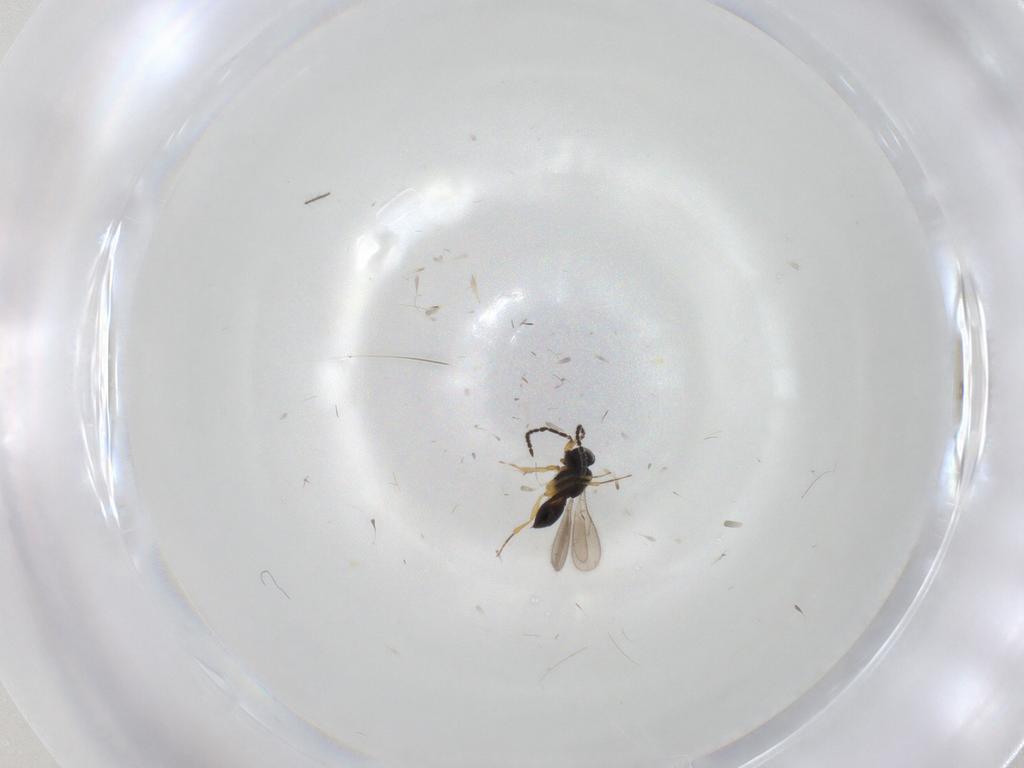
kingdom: Animalia
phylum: Arthropoda
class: Insecta
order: Hymenoptera
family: Scelionidae
